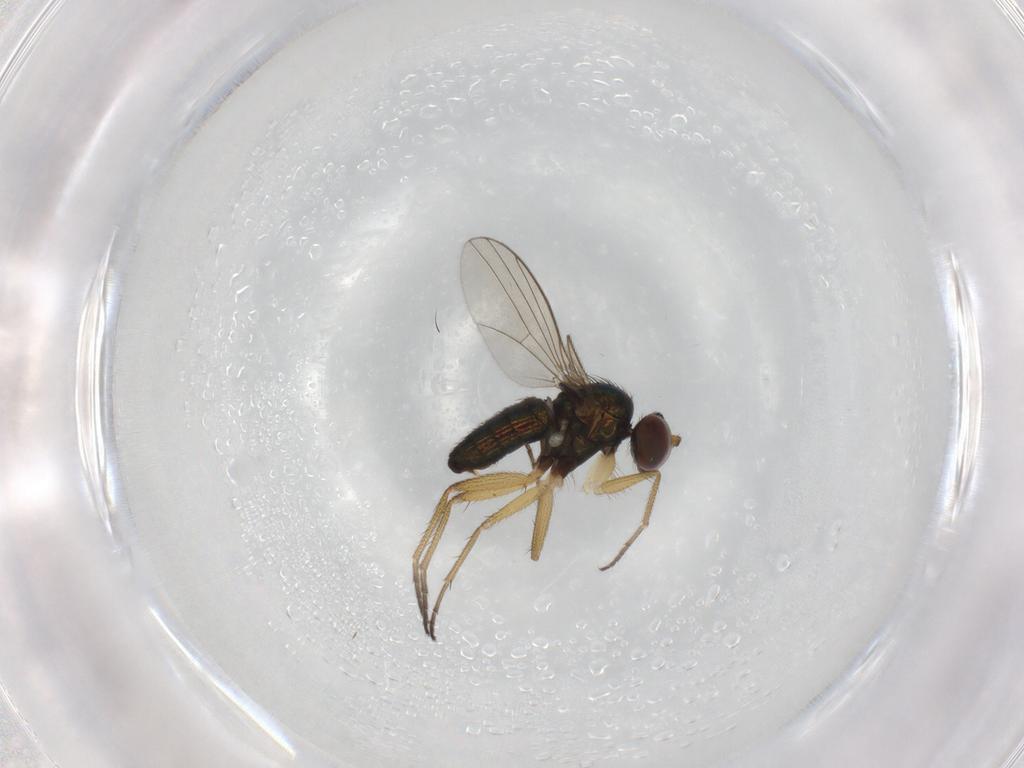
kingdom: Animalia
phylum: Arthropoda
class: Insecta
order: Diptera
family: Dolichopodidae
